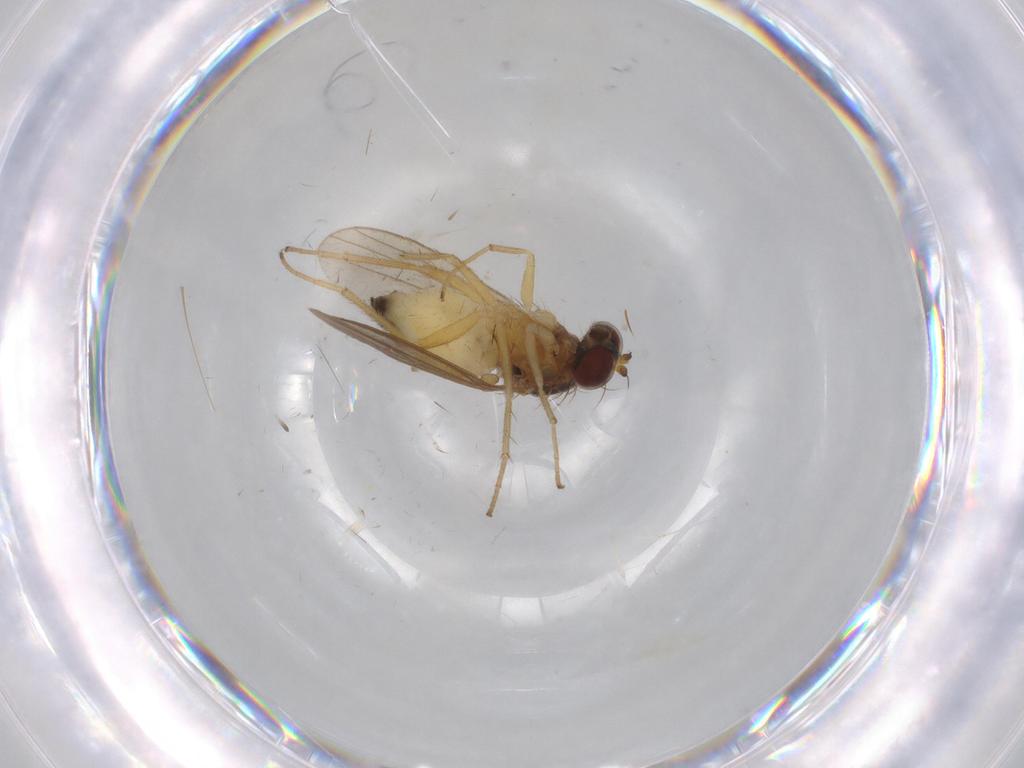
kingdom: Animalia
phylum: Arthropoda
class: Insecta
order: Diptera
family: Dolichopodidae
